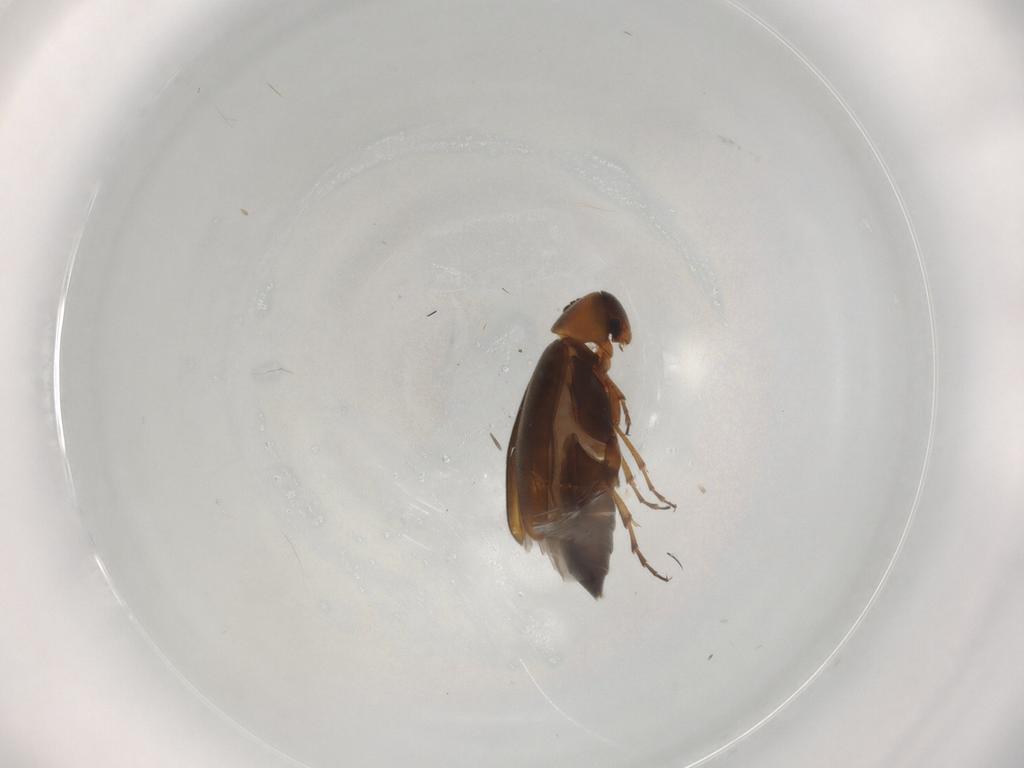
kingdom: Animalia
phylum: Arthropoda
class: Insecta
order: Coleoptera
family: Scraptiidae
